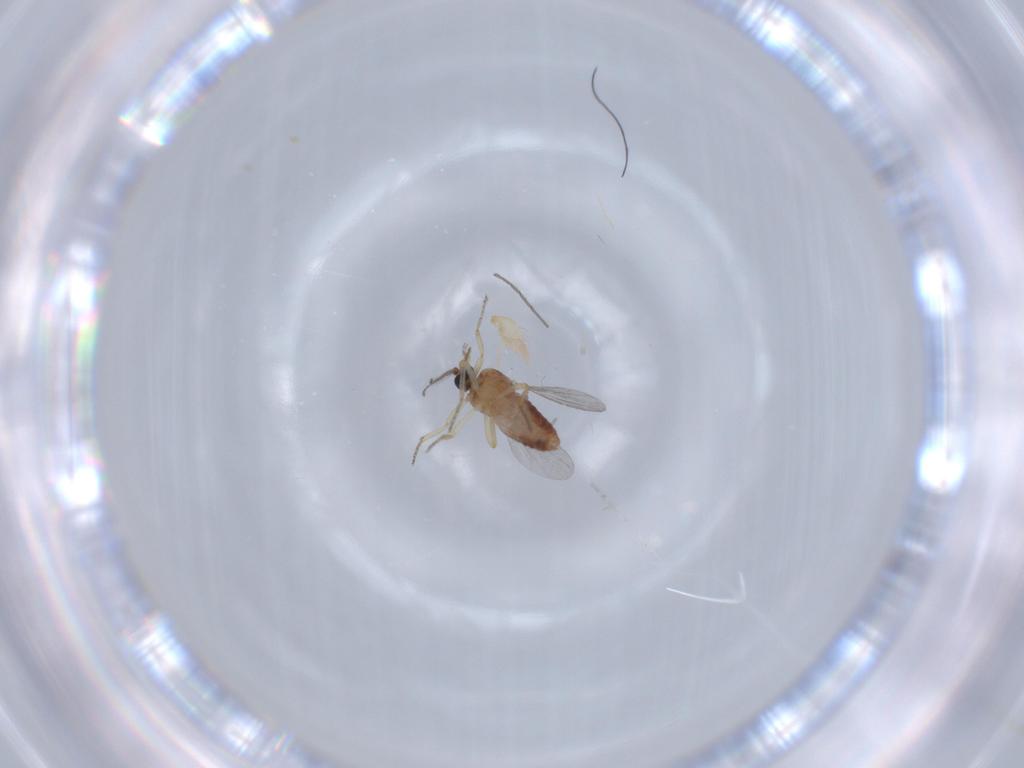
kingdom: Animalia
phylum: Arthropoda
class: Insecta
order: Diptera
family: Ceratopogonidae
